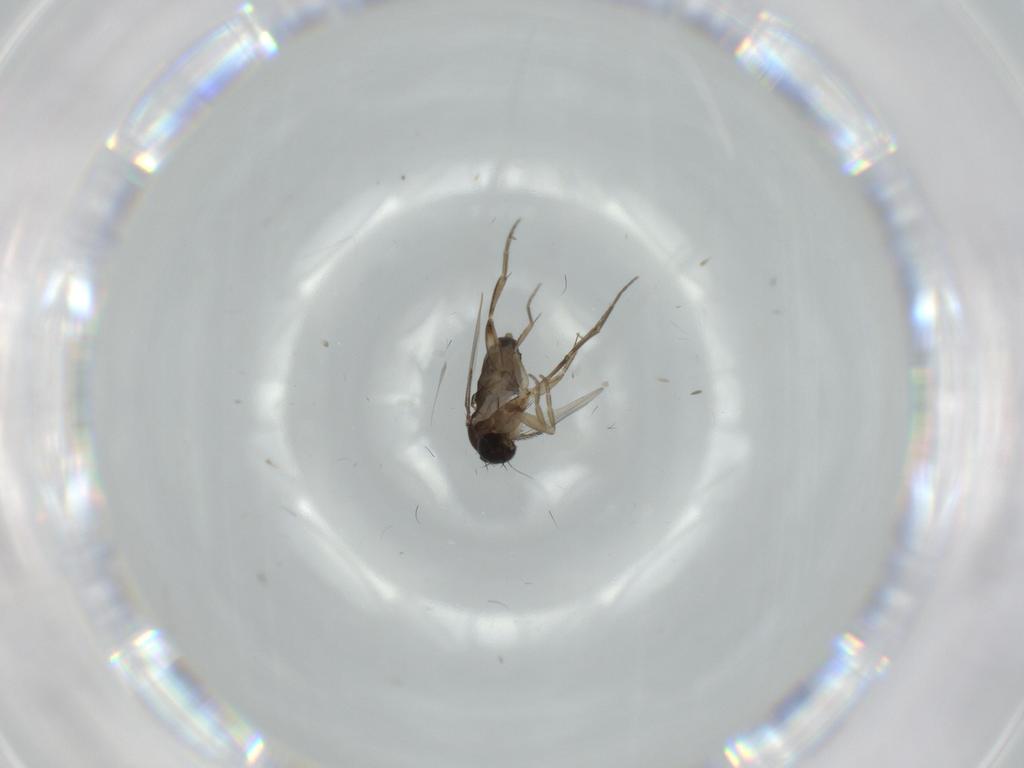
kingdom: Animalia
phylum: Arthropoda
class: Insecta
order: Diptera
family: Phoridae
